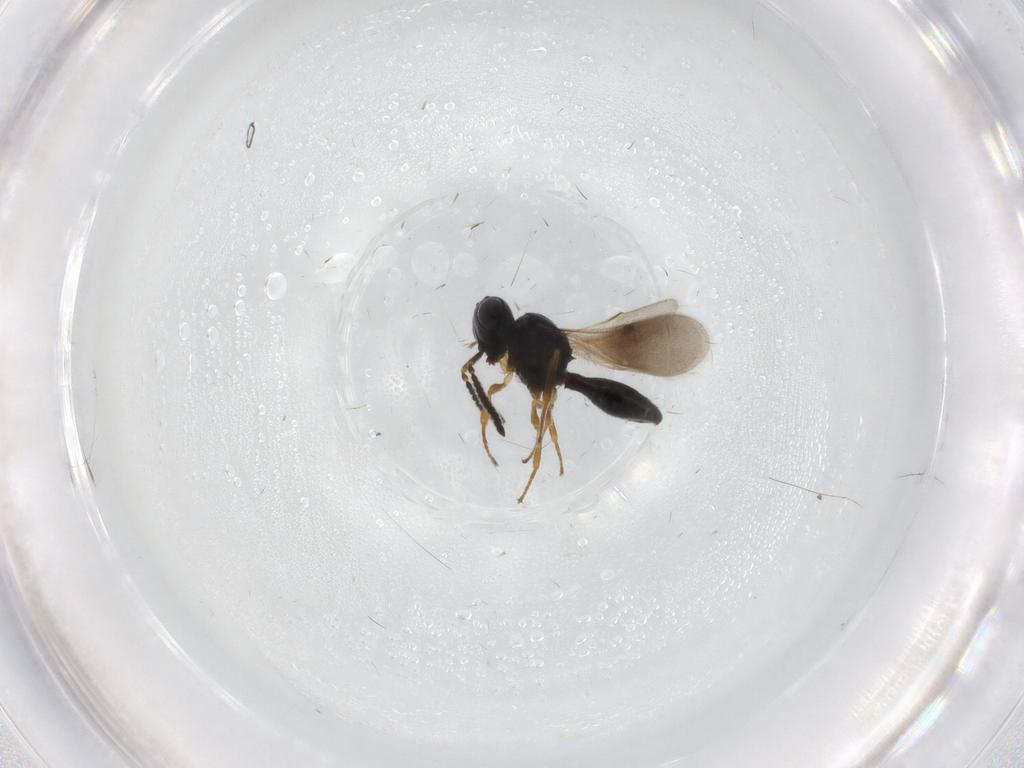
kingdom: Animalia
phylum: Arthropoda
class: Insecta
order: Hymenoptera
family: Scelionidae
